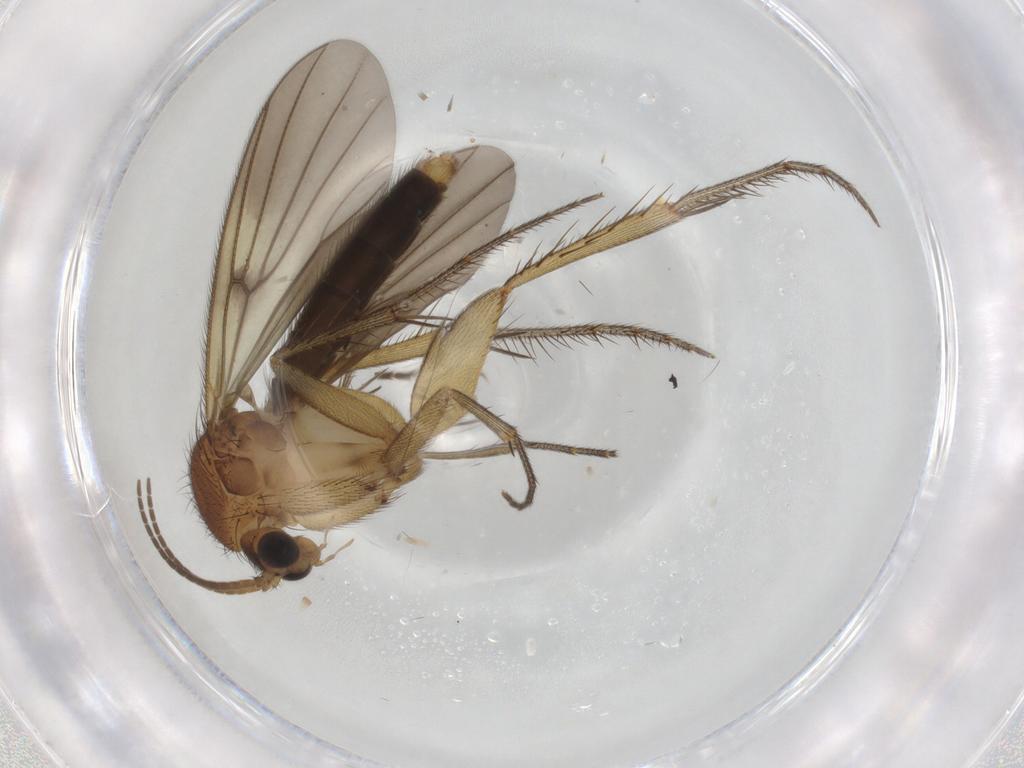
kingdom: Animalia
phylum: Arthropoda
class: Insecta
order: Diptera
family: Mycetophilidae
